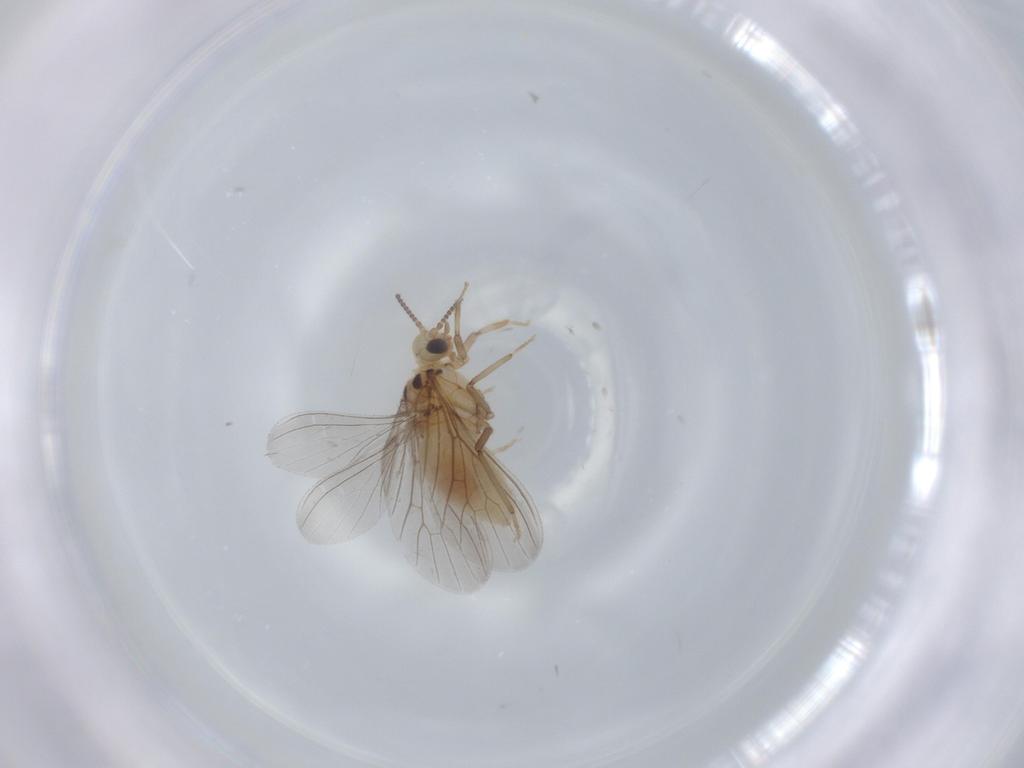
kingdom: Animalia
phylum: Arthropoda
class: Insecta
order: Neuroptera
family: Coniopterygidae
